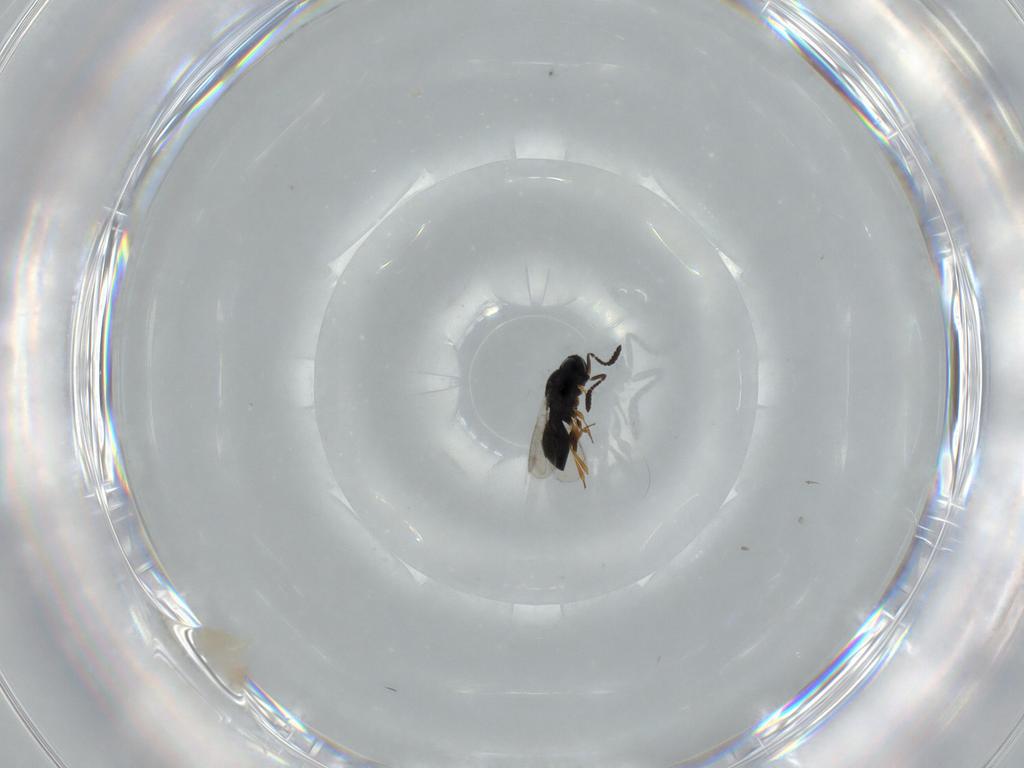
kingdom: Animalia
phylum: Arthropoda
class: Insecta
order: Hymenoptera
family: Scelionidae
